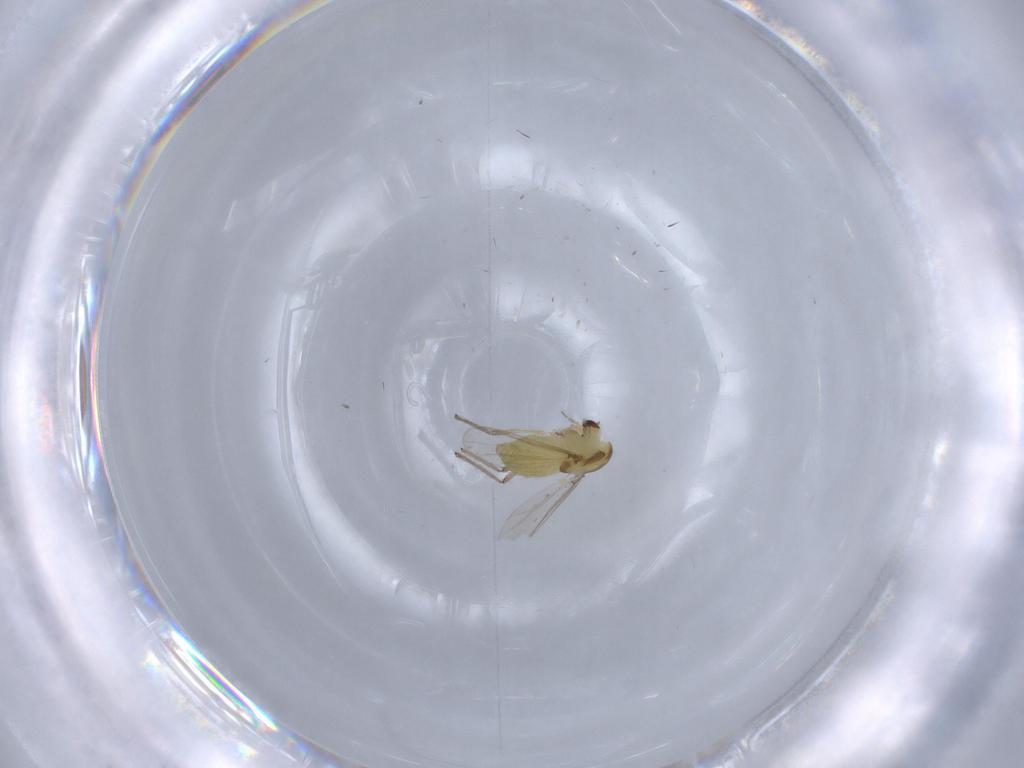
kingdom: Animalia
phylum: Arthropoda
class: Insecta
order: Diptera
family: Chironomidae
